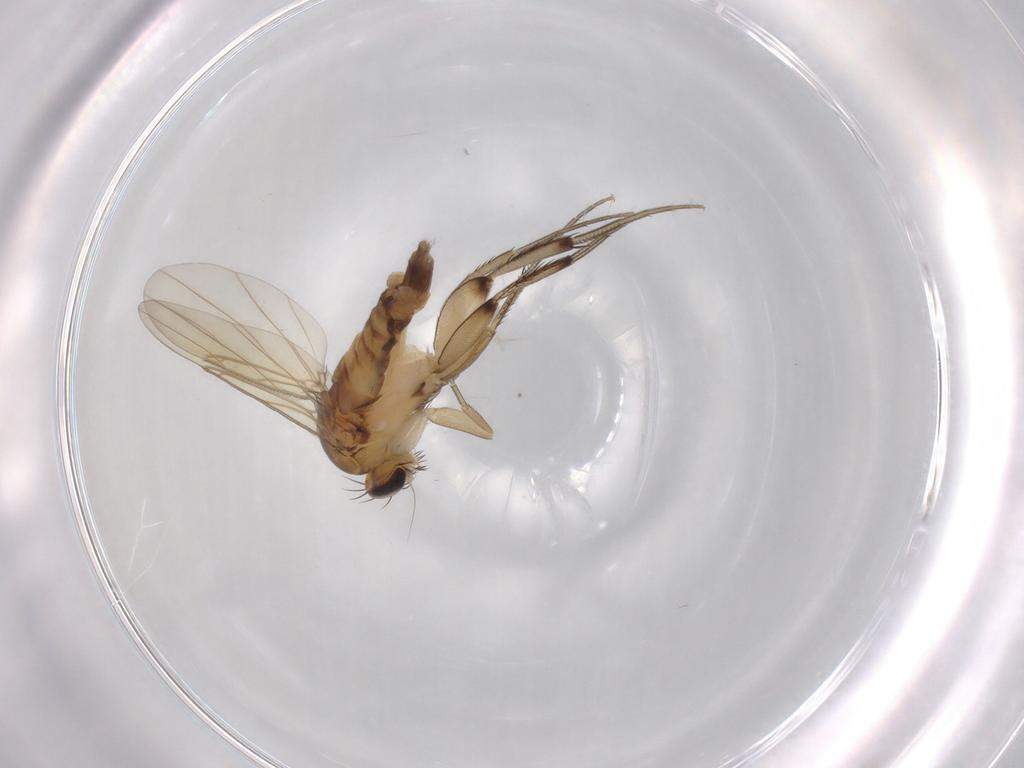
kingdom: Animalia
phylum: Arthropoda
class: Insecta
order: Diptera
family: Phoridae
